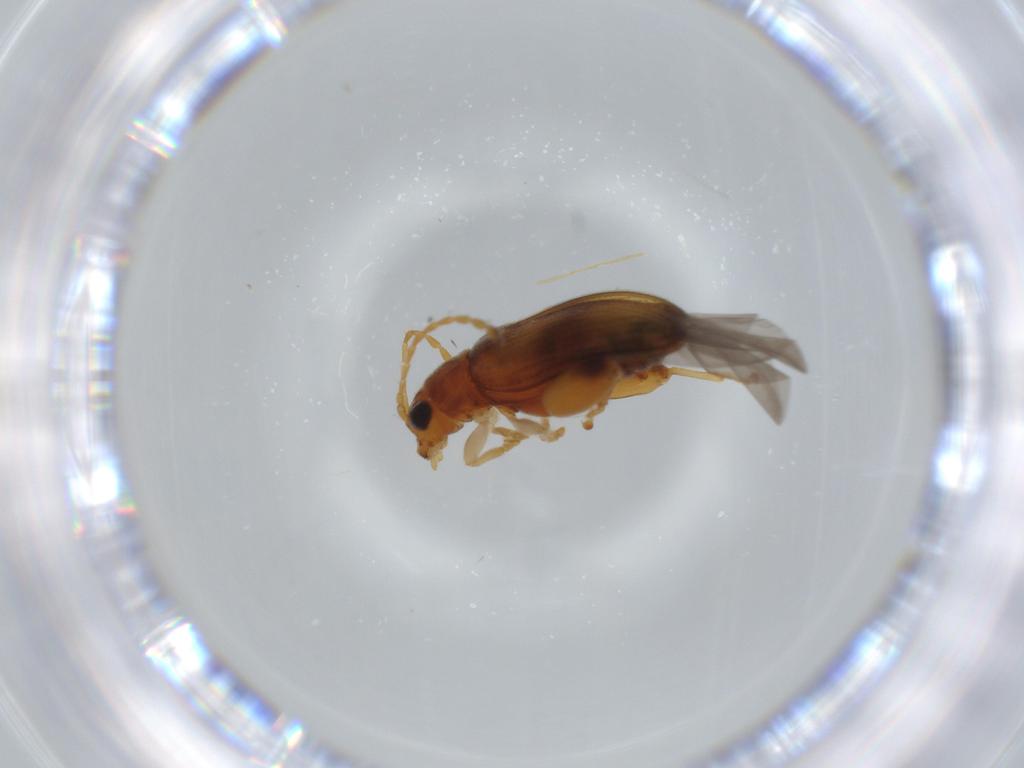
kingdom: Animalia
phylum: Arthropoda
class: Insecta
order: Coleoptera
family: Chrysomelidae
